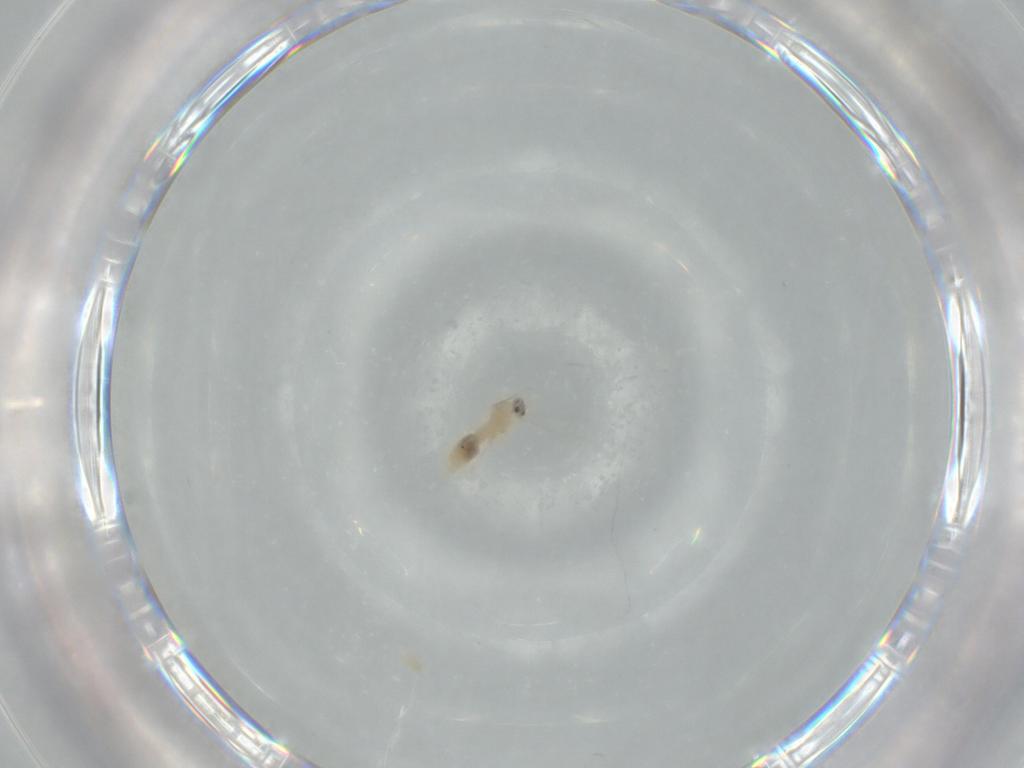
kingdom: Animalia
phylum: Arthropoda
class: Insecta
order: Diptera
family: Cecidomyiidae
